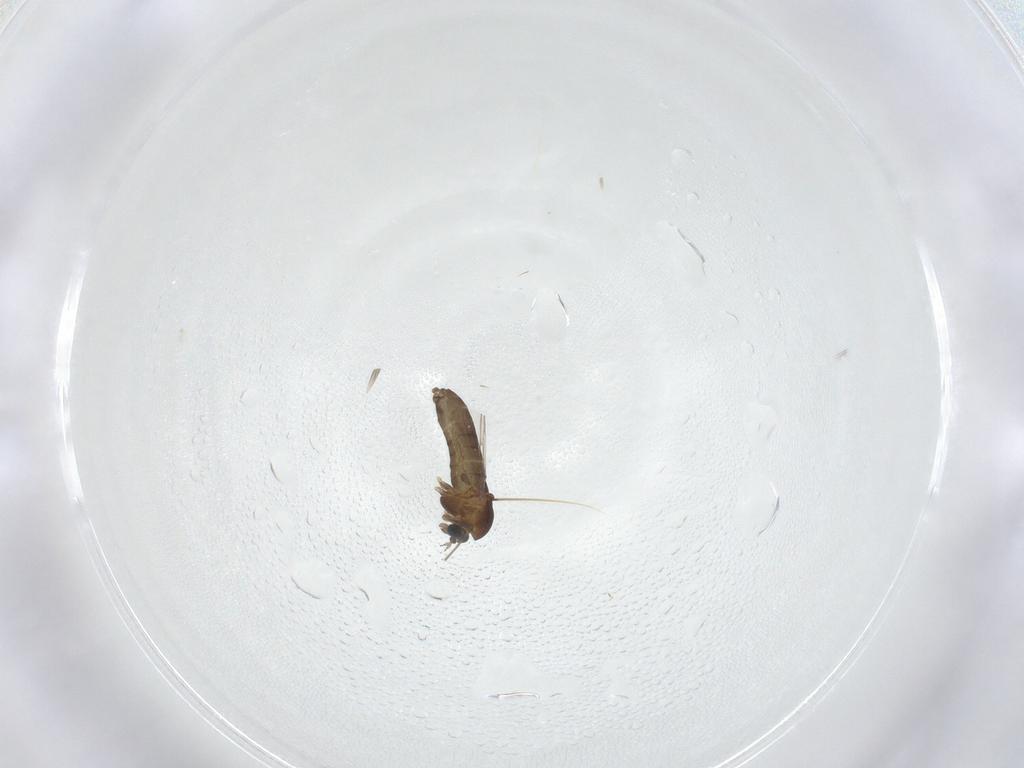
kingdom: Animalia
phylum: Arthropoda
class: Insecta
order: Diptera
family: Chironomidae
